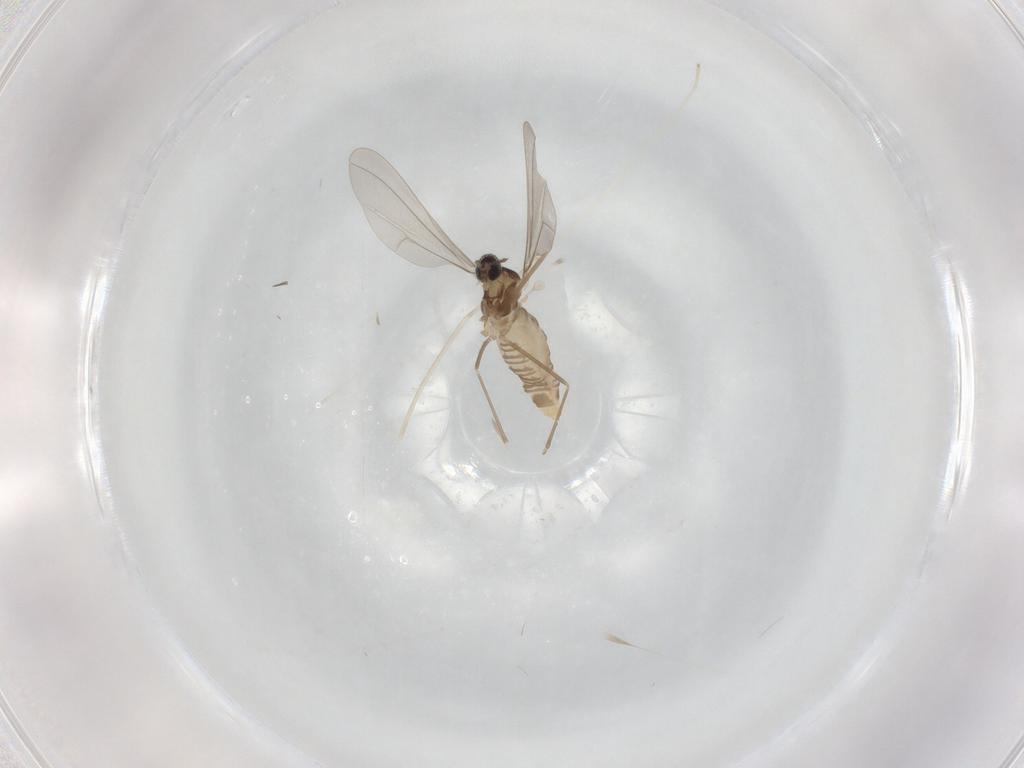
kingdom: Animalia
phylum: Arthropoda
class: Insecta
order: Diptera
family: Cecidomyiidae
